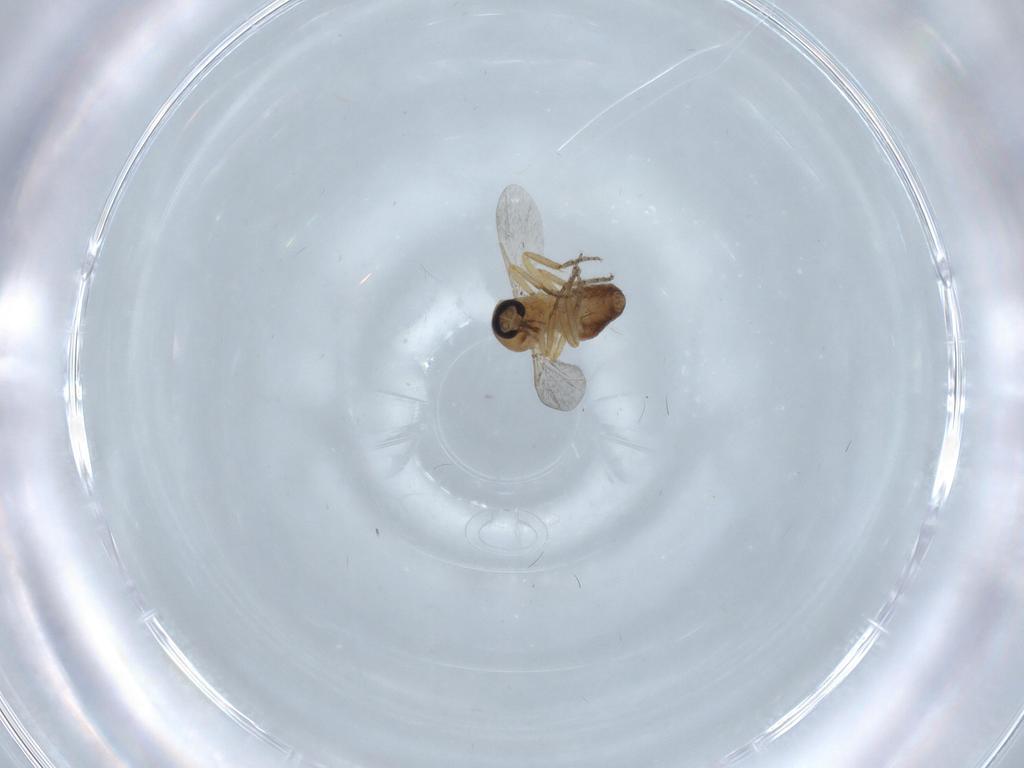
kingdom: Animalia
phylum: Arthropoda
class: Insecta
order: Diptera
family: Ceratopogonidae
